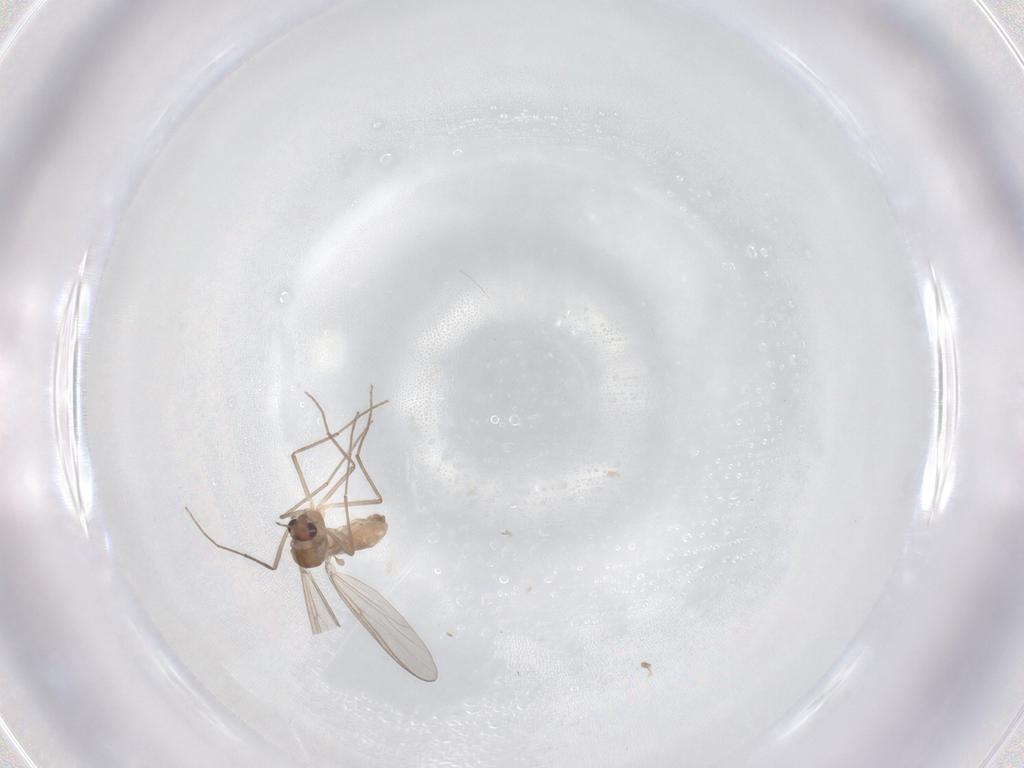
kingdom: Animalia
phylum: Arthropoda
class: Insecta
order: Diptera
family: Chironomidae
